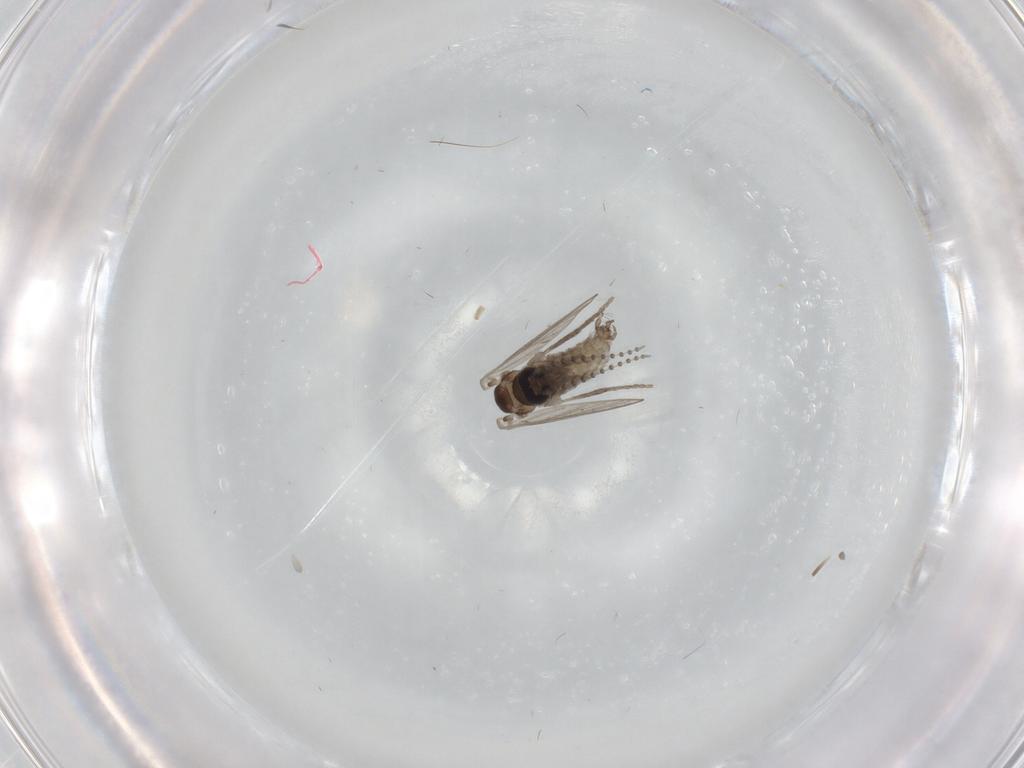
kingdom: Animalia
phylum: Arthropoda
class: Insecta
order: Diptera
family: Psychodidae
